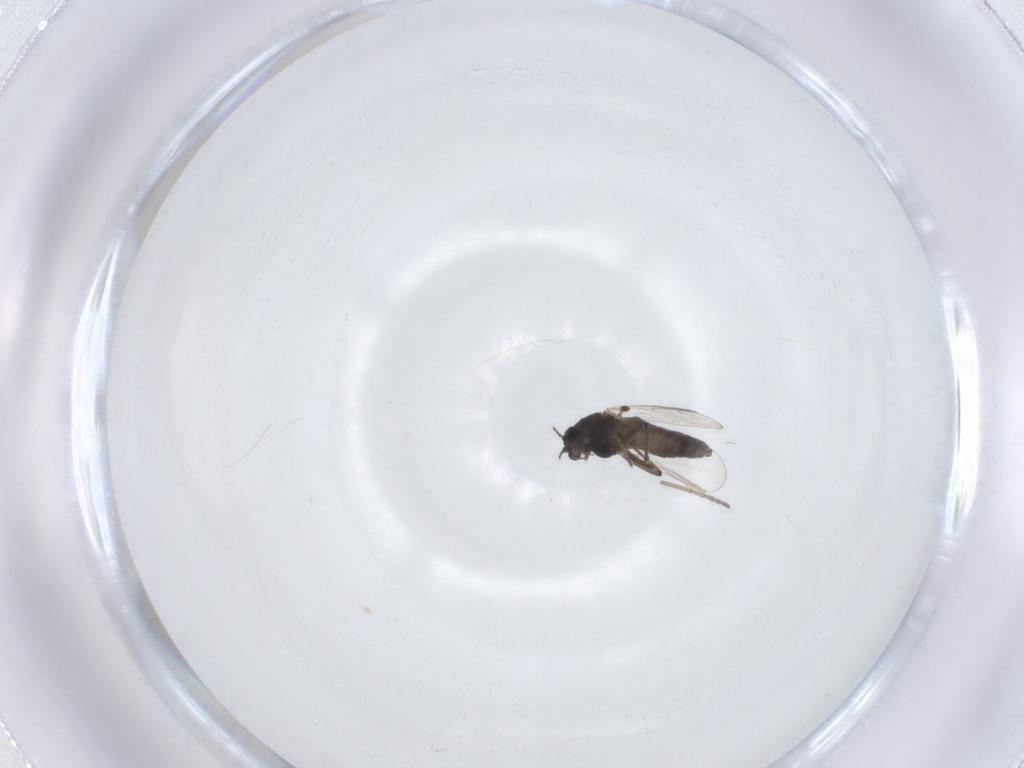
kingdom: Animalia
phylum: Arthropoda
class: Insecta
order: Diptera
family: Chironomidae
